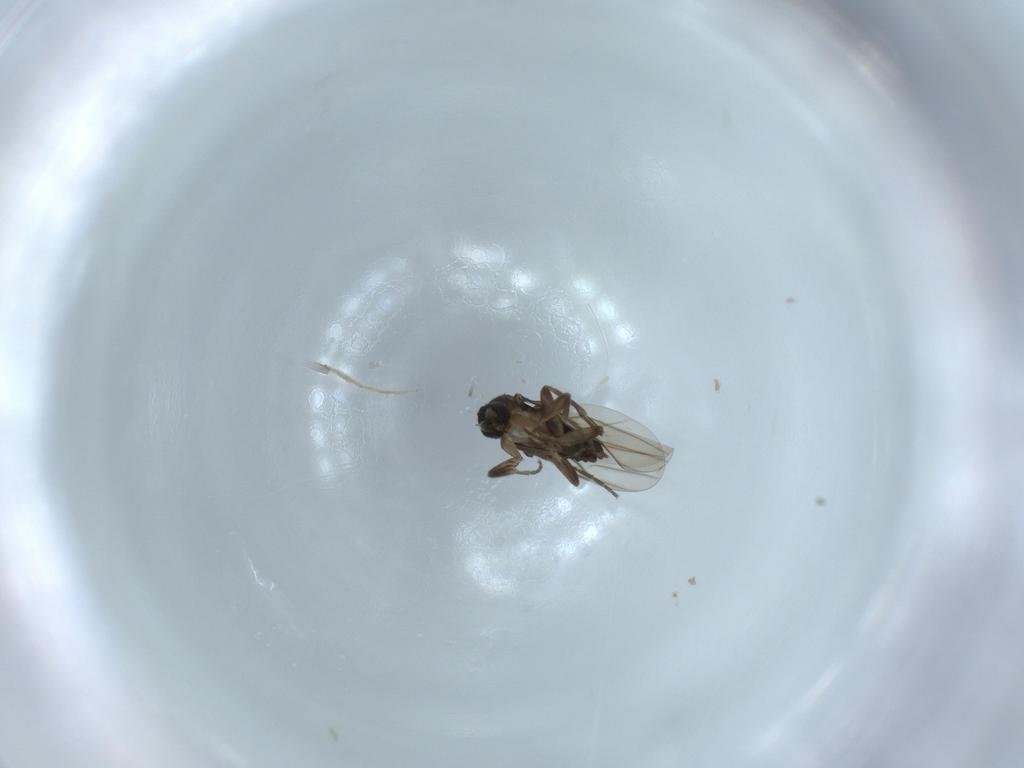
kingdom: Animalia
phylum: Arthropoda
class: Insecta
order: Diptera
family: Phoridae
